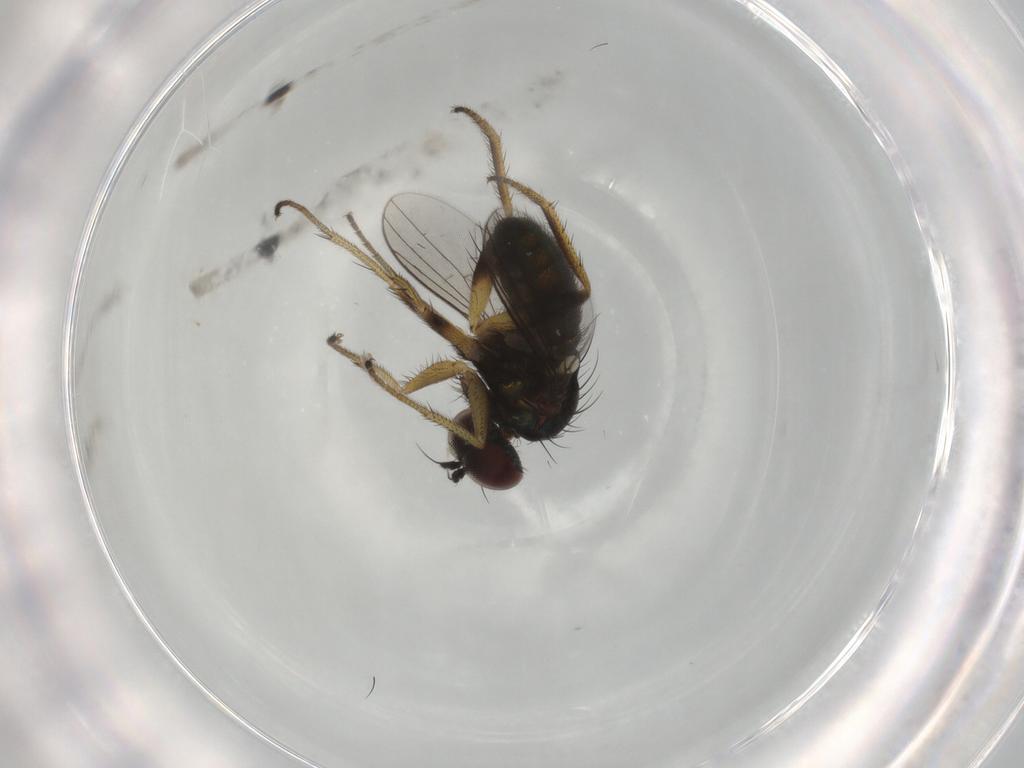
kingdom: Animalia
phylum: Arthropoda
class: Insecta
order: Diptera
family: Dolichopodidae
